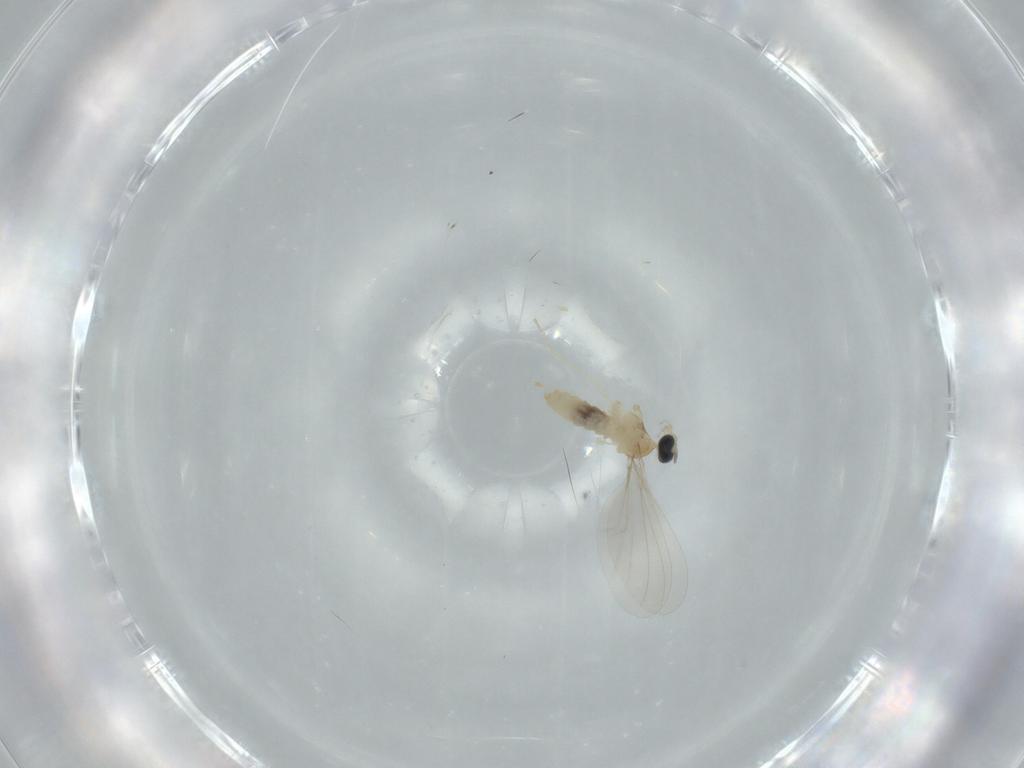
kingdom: Animalia
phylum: Arthropoda
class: Insecta
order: Diptera
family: Cecidomyiidae
